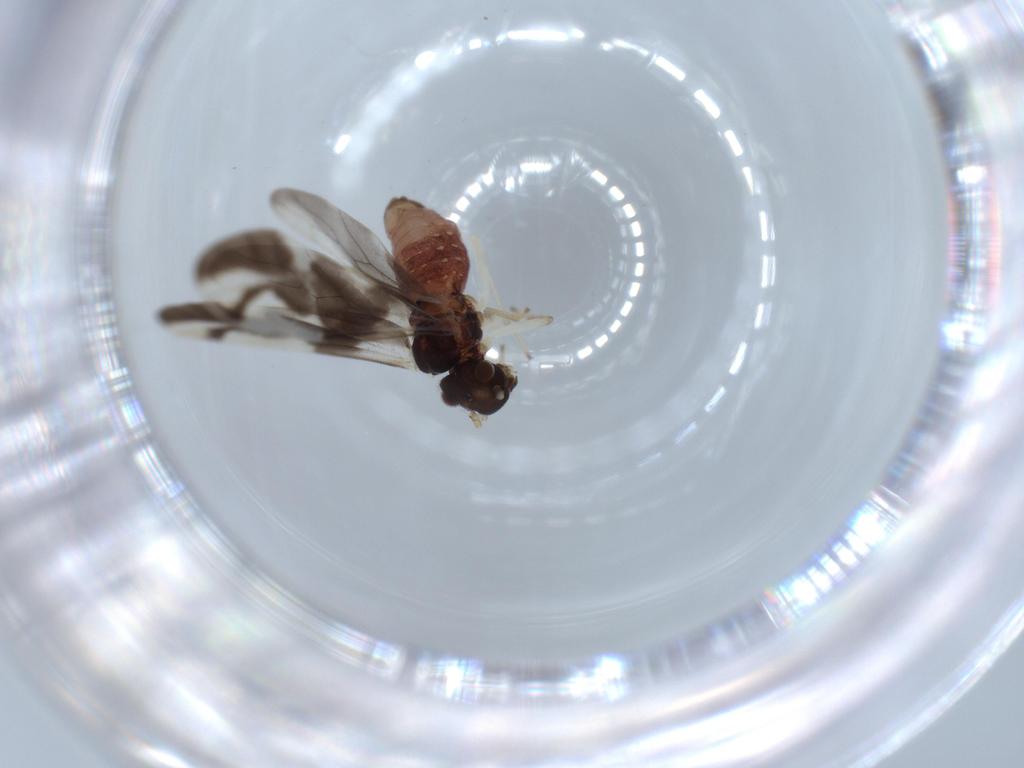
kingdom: Animalia
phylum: Arthropoda
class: Insecta
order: Psocodea
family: Caeciliusidae
